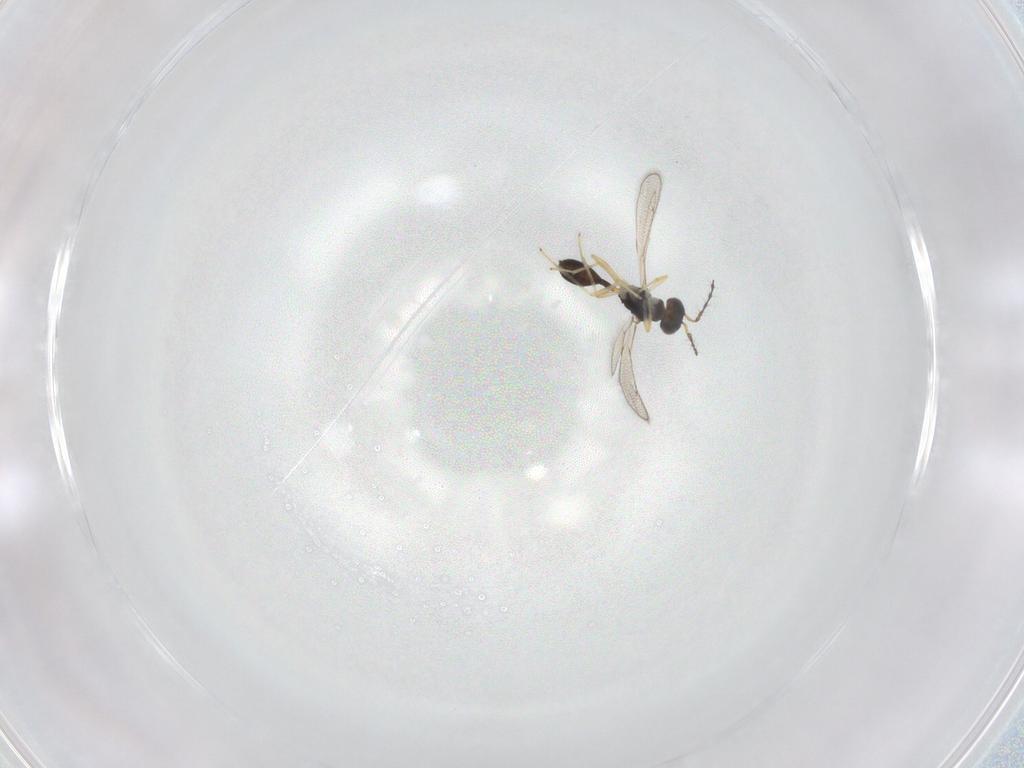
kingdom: Animalia
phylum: Arthropoda
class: Insecta
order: Hymenoptera
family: Diparidae
